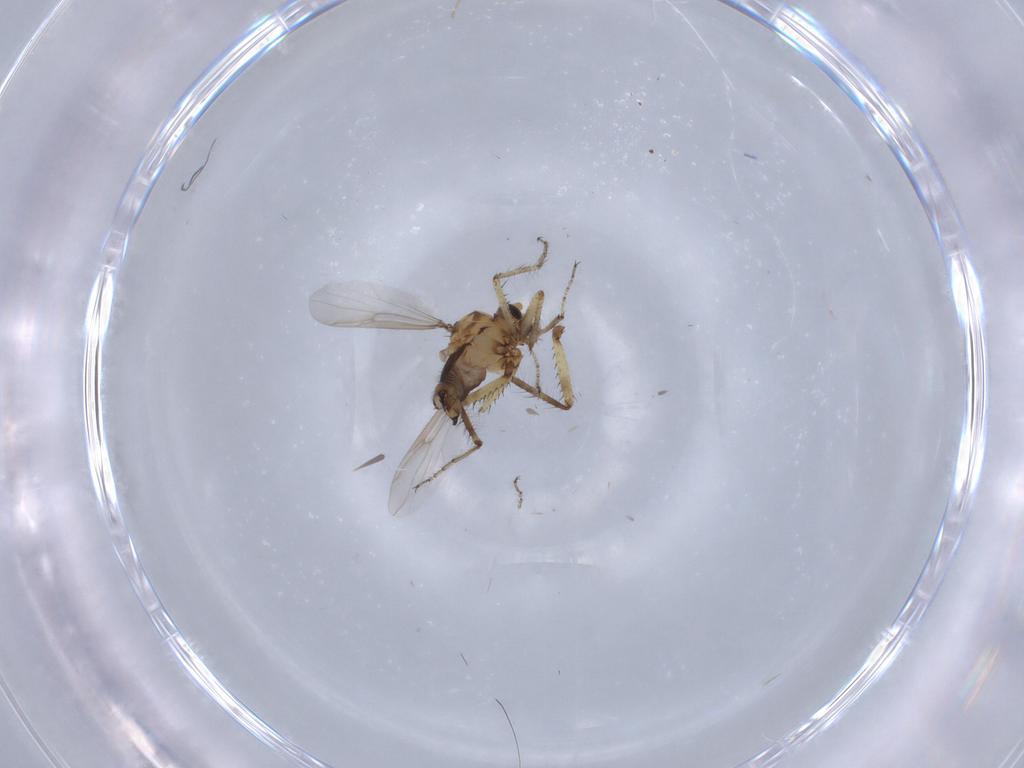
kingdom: Animalia
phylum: Arthropoda
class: Insecta
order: Diptera
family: Ceratopogonidae
